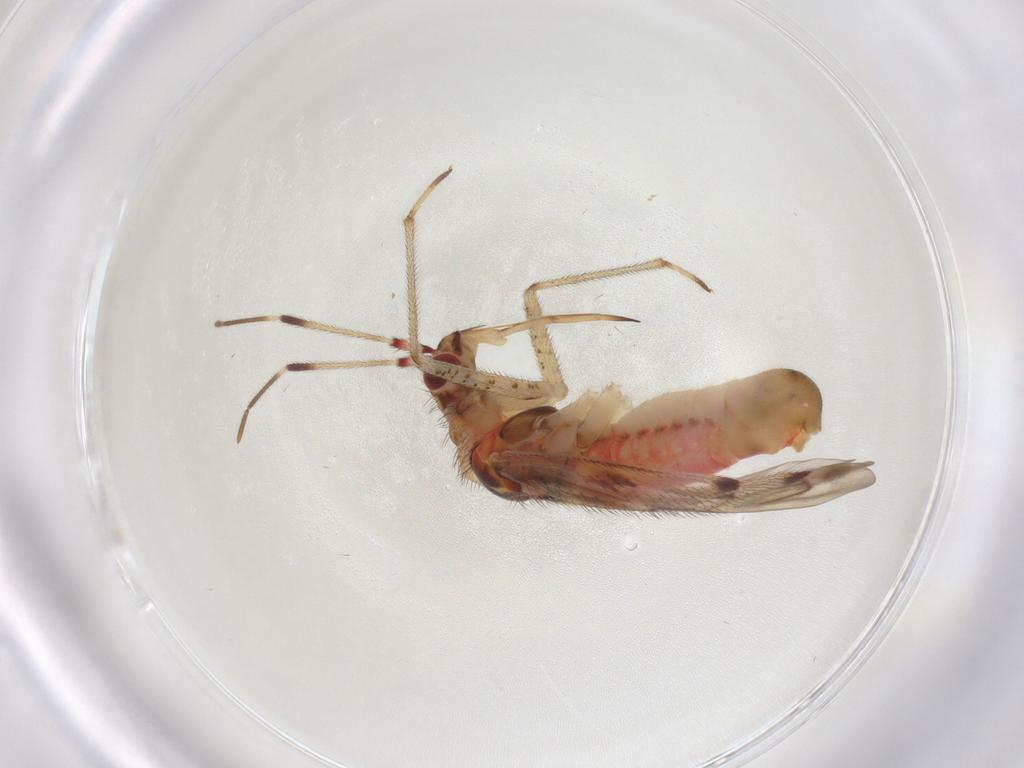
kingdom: Animalia
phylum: Arthropoda
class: Insecta
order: Hemiptera
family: Miridae
